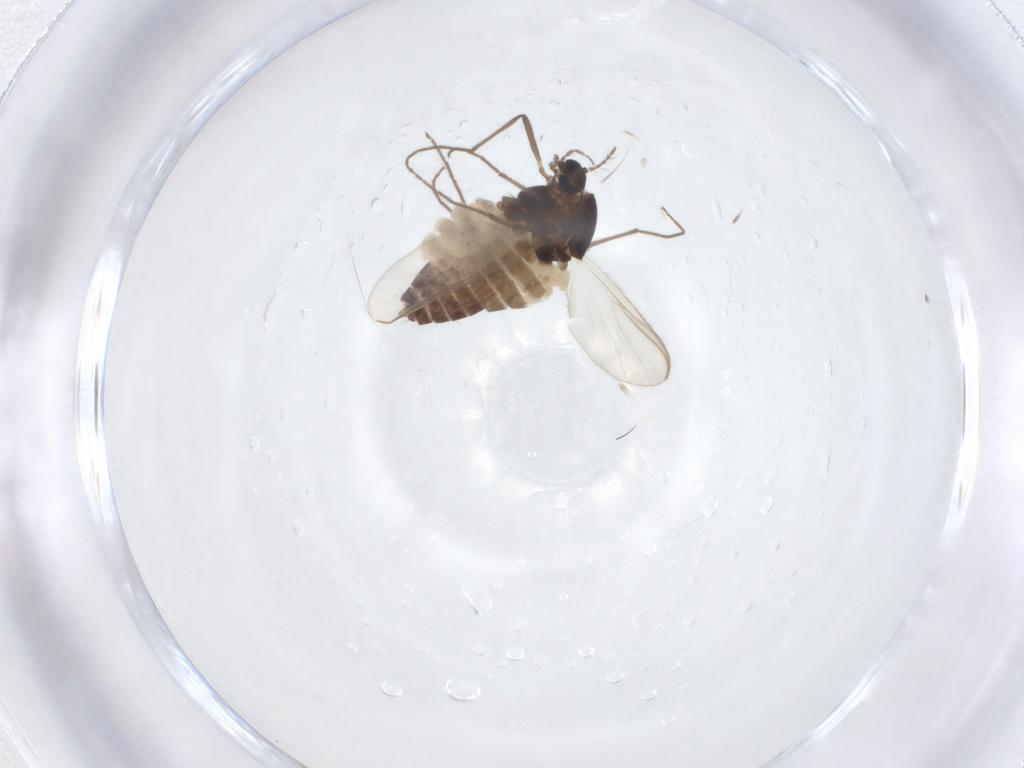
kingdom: Animalia
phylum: Arthropoda
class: Insecta
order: Diptera
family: Chironomidae
